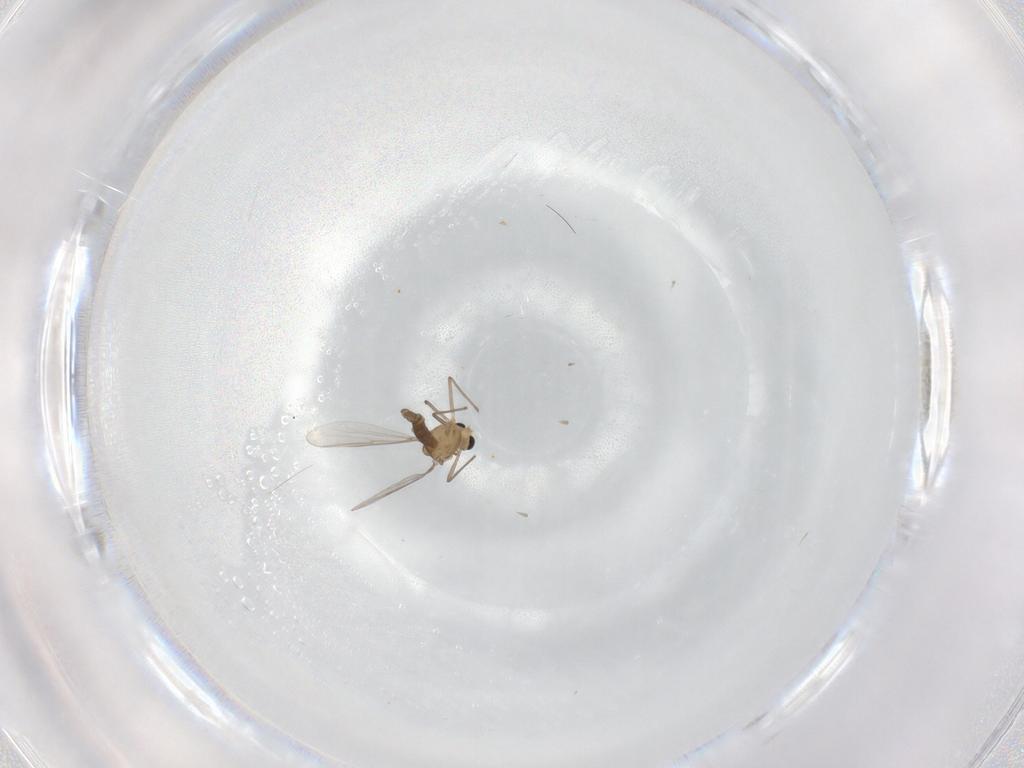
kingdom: Animalia
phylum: Arthropoda
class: Insecta
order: Diptera
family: Chironomidae
